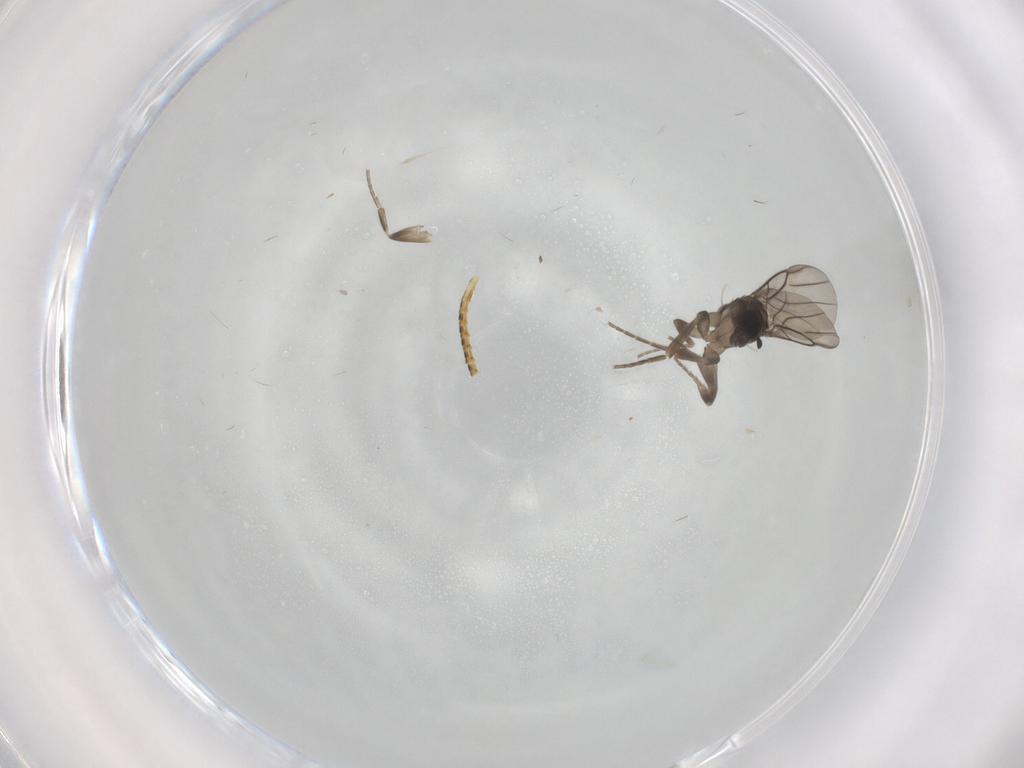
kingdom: Animalia
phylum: Arthropoda
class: Insecta
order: Diptera
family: Phoridae
